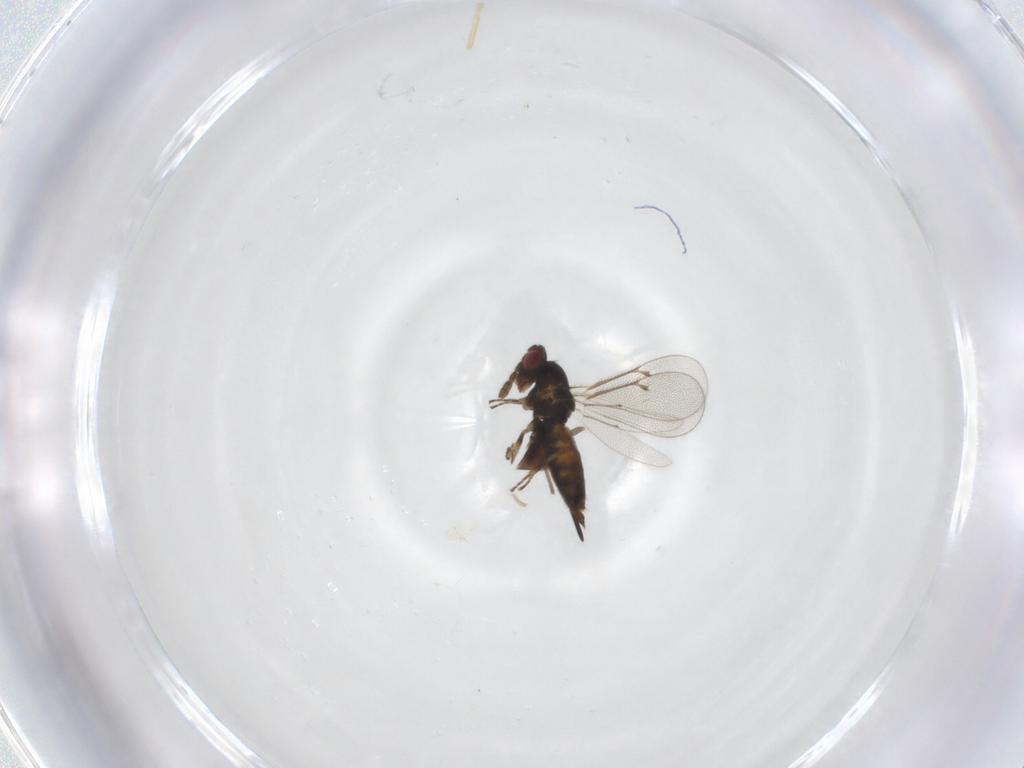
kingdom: Animalia
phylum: Arthropoda
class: Insecta
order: Hymenoptera
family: Eulophidae
